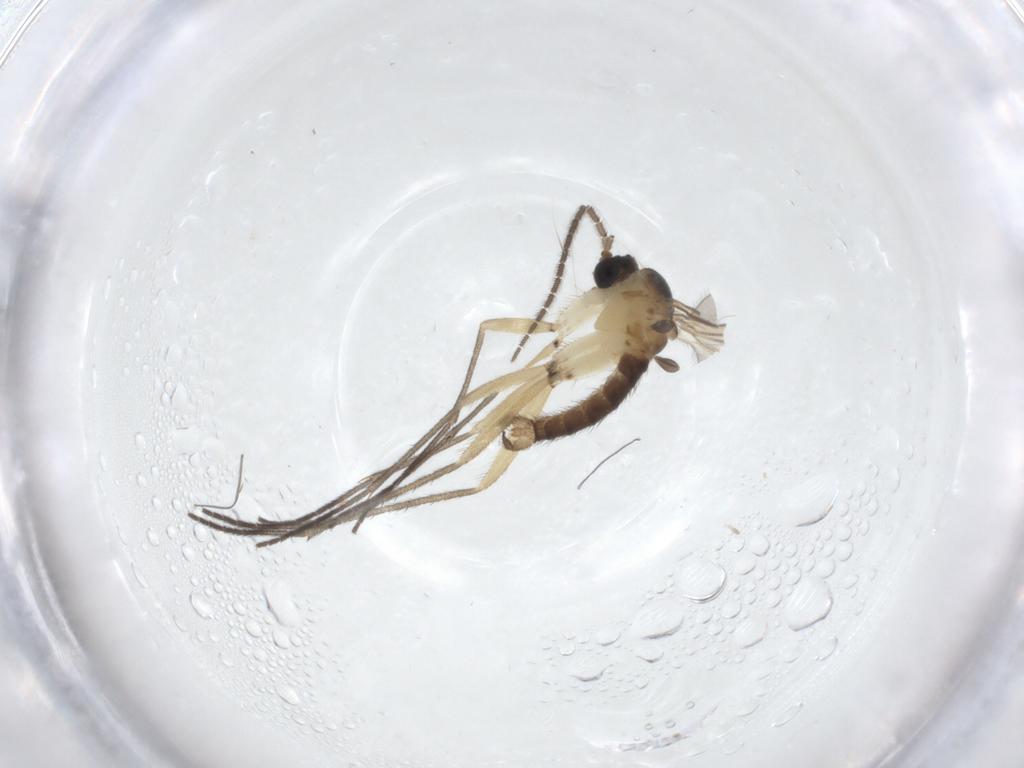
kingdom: Animalia
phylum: Arthropoda
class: Insecta
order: Diptera
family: Sciaridae
